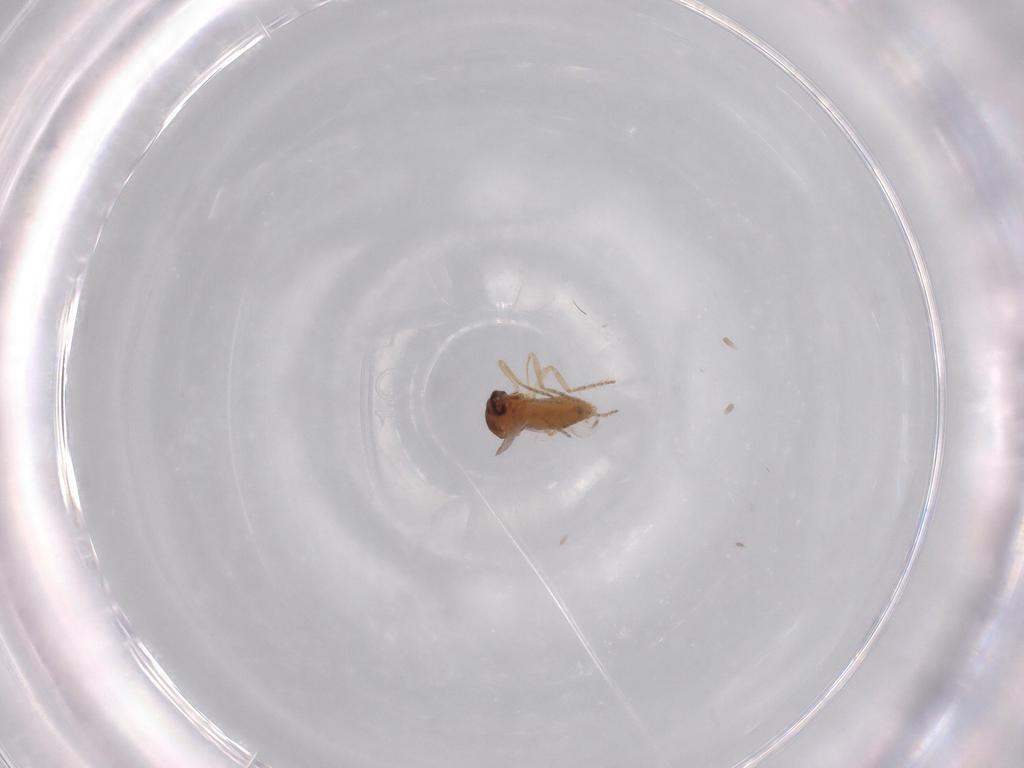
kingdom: Animalia
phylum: Arthropoda
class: Insecta
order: Diptera
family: Ceratopogonidae
